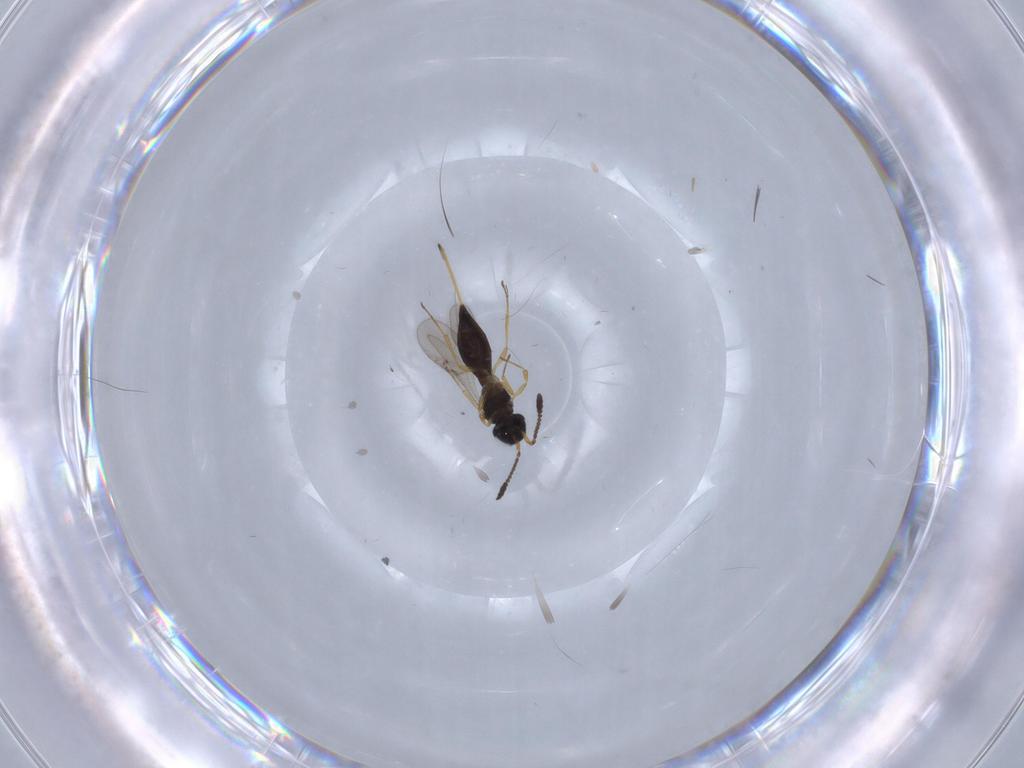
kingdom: Animalia
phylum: Arthropoda
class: Insecta
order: Hymenoptera
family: Scelionidae
